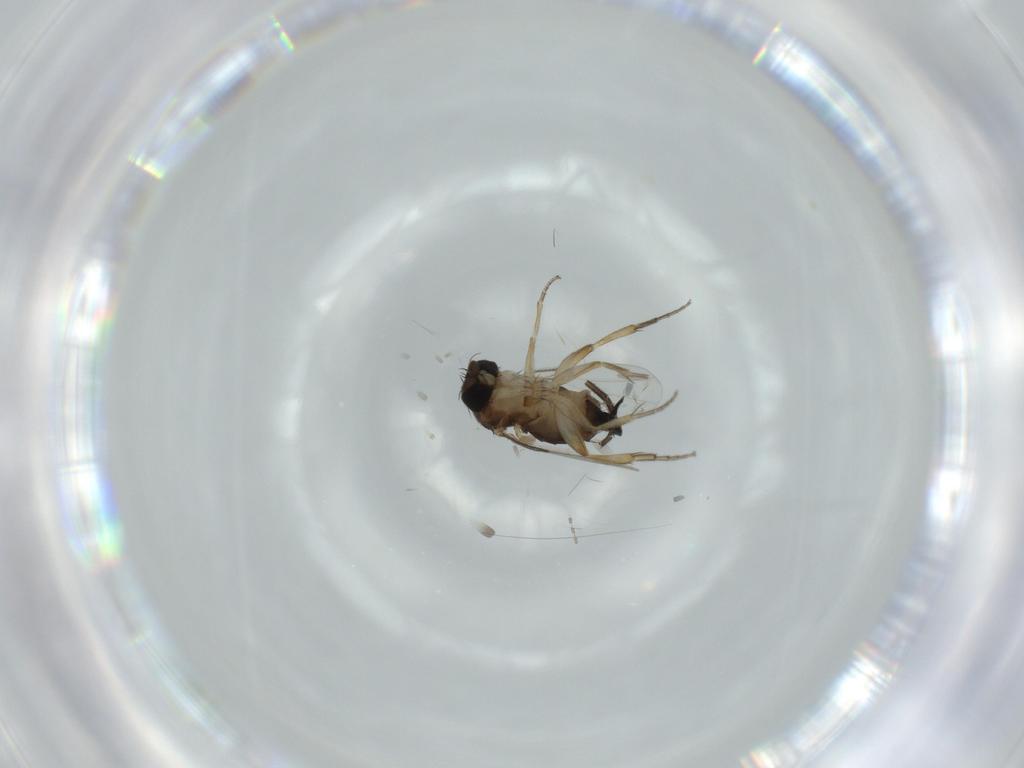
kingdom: Animalia
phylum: Arthropoda
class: Insecta
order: Diptera
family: Phoridae
